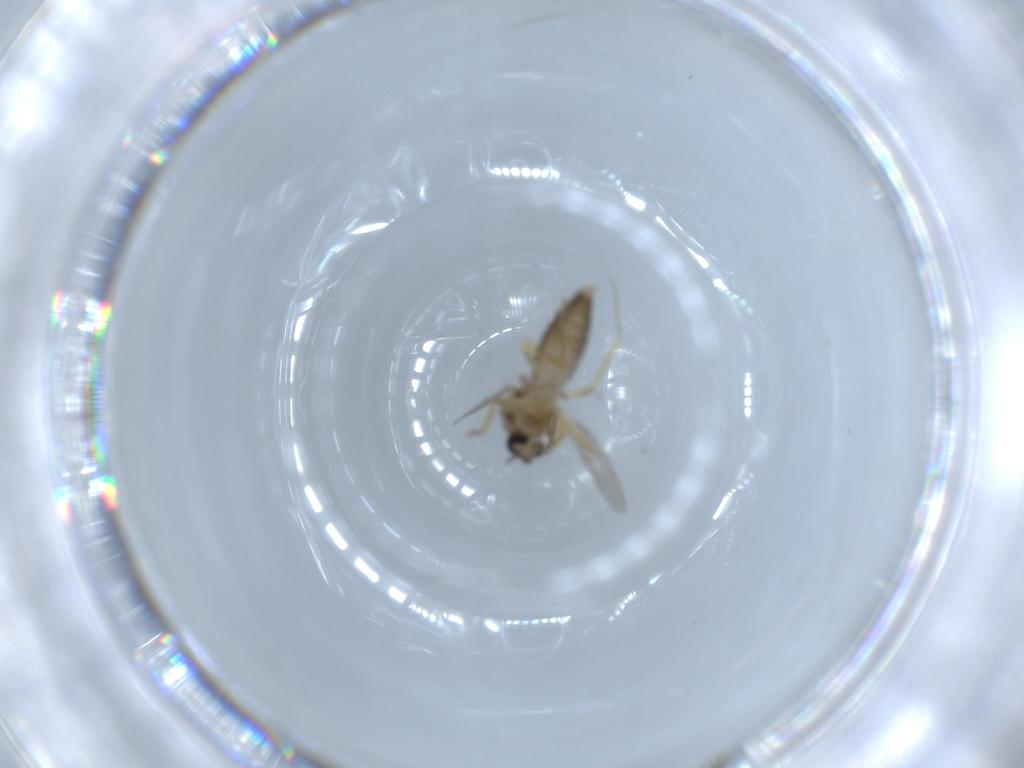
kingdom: Animalia
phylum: Arthropoda
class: Insecta
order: Diptera
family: Ceratopogonidae
